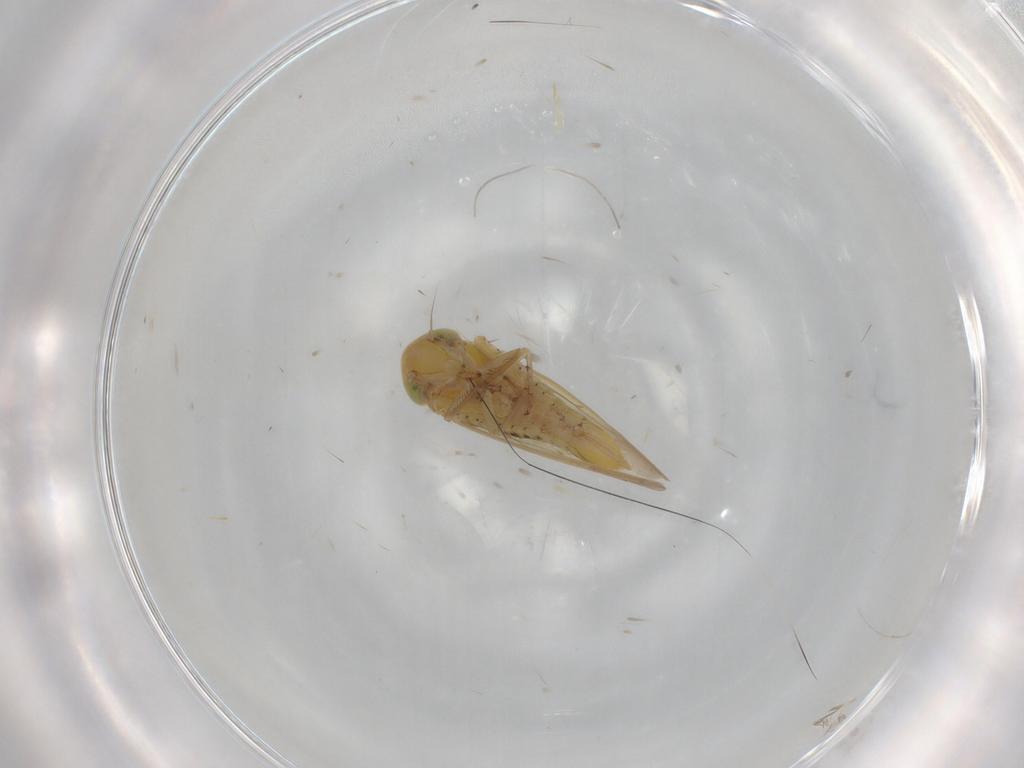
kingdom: Animalia
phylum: Arthropoda
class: Insecta
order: Hemiptera
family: Cicadellidae
